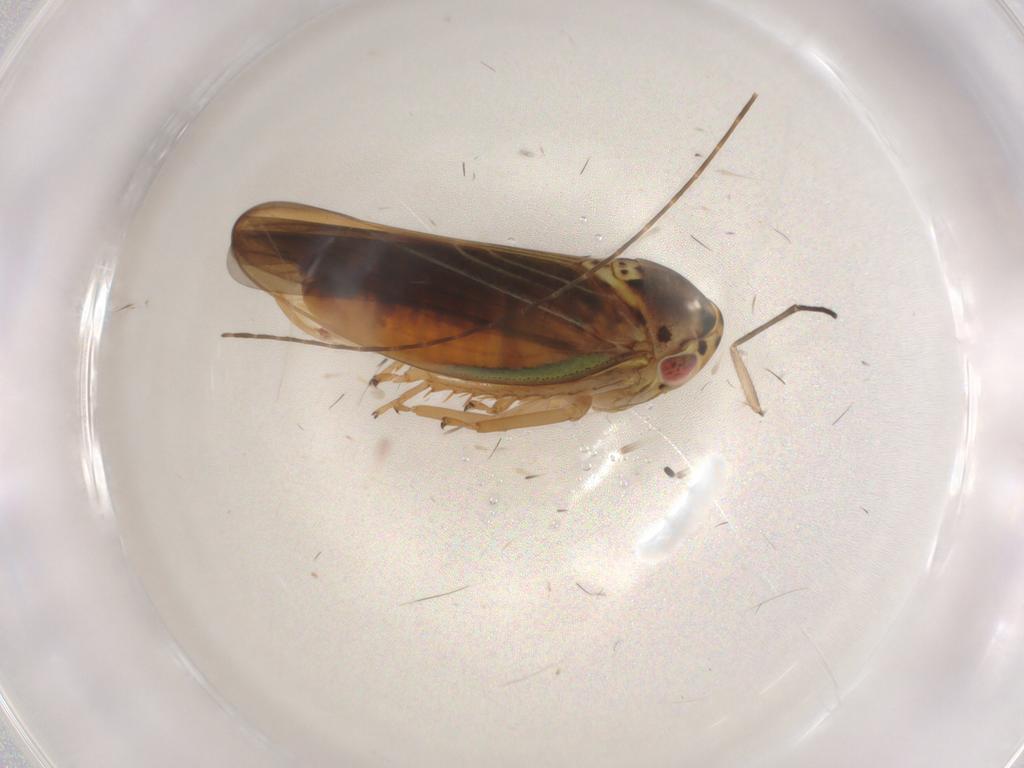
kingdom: Animalia
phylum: Arthropoda
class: Insecta
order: Hemiptera
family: Cicadellidae
